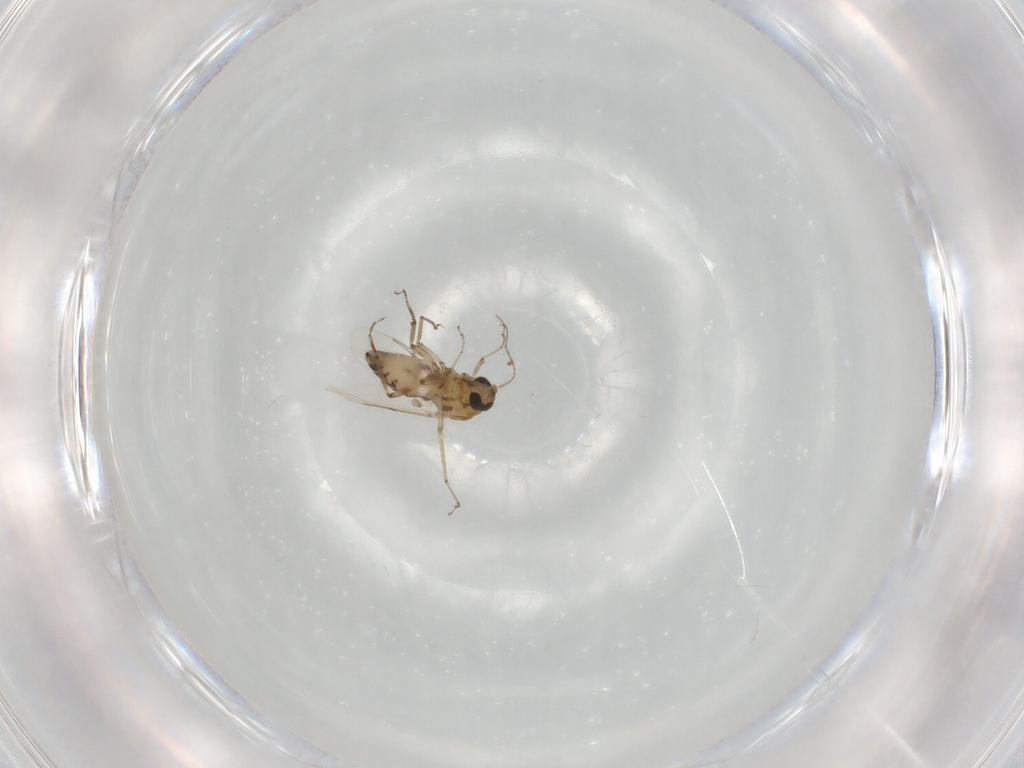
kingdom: Animalia
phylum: Arthropoda
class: Insecta
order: Diptera
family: Ceratopogonidae
